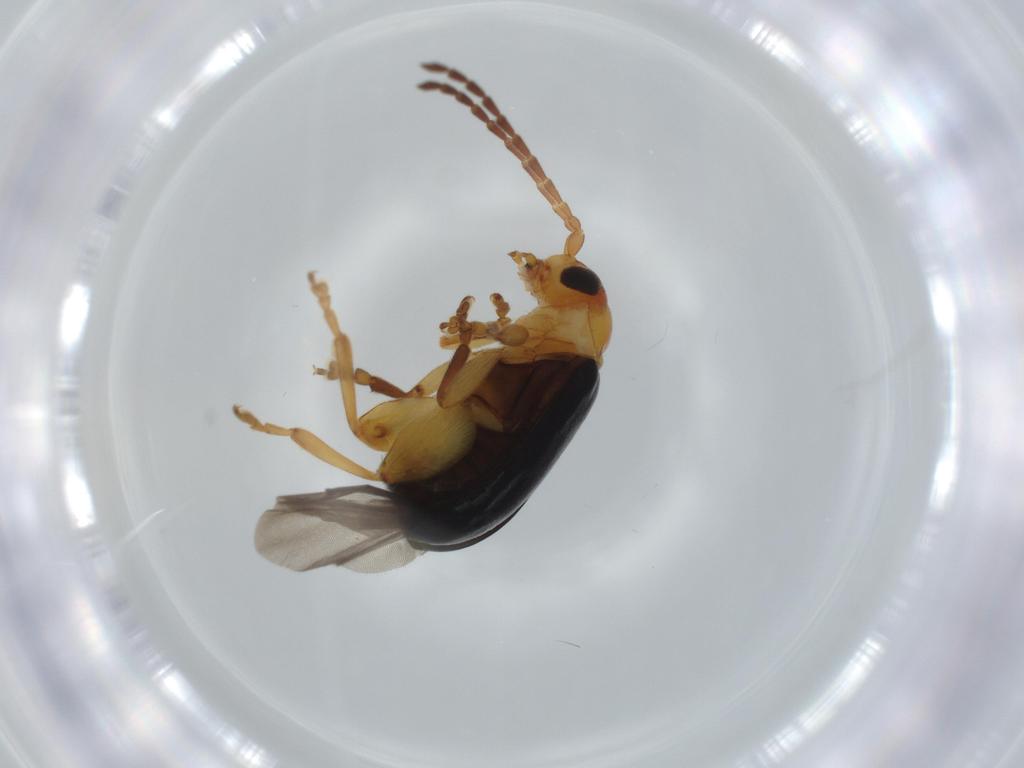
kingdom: Animalia
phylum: Arthropoda
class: Insecta
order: Coleoptera
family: Chrysomelidae
